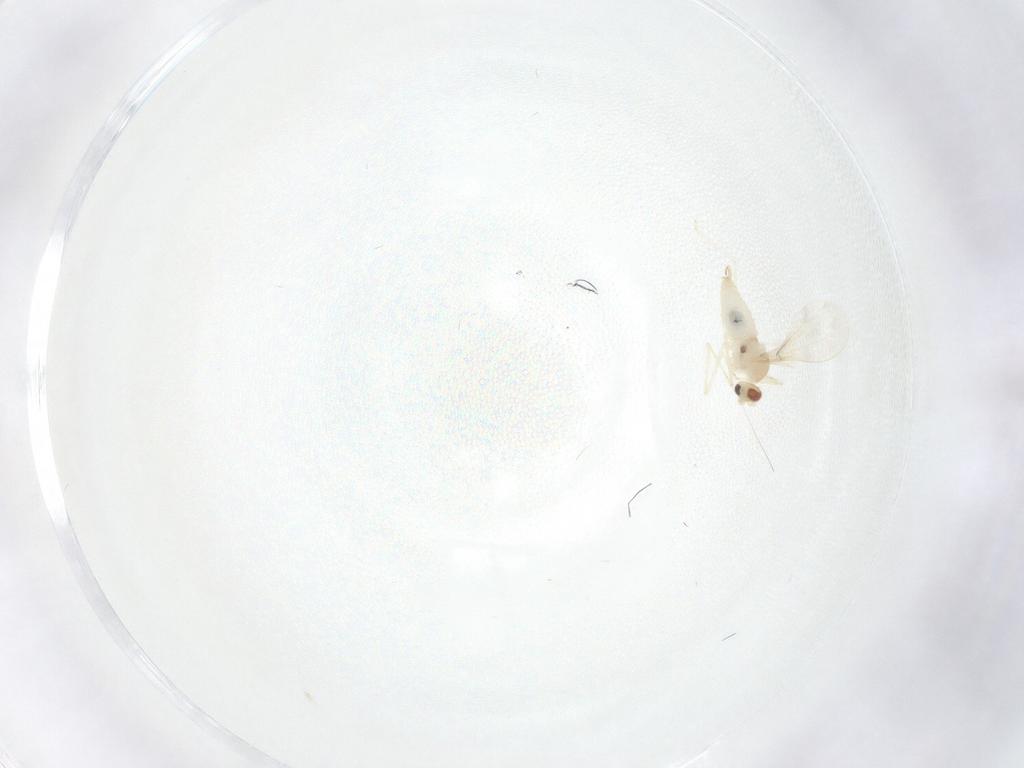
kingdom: Animalia
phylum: Arthropoda
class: Insecta
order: Diptera
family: Cecidomyiidae
